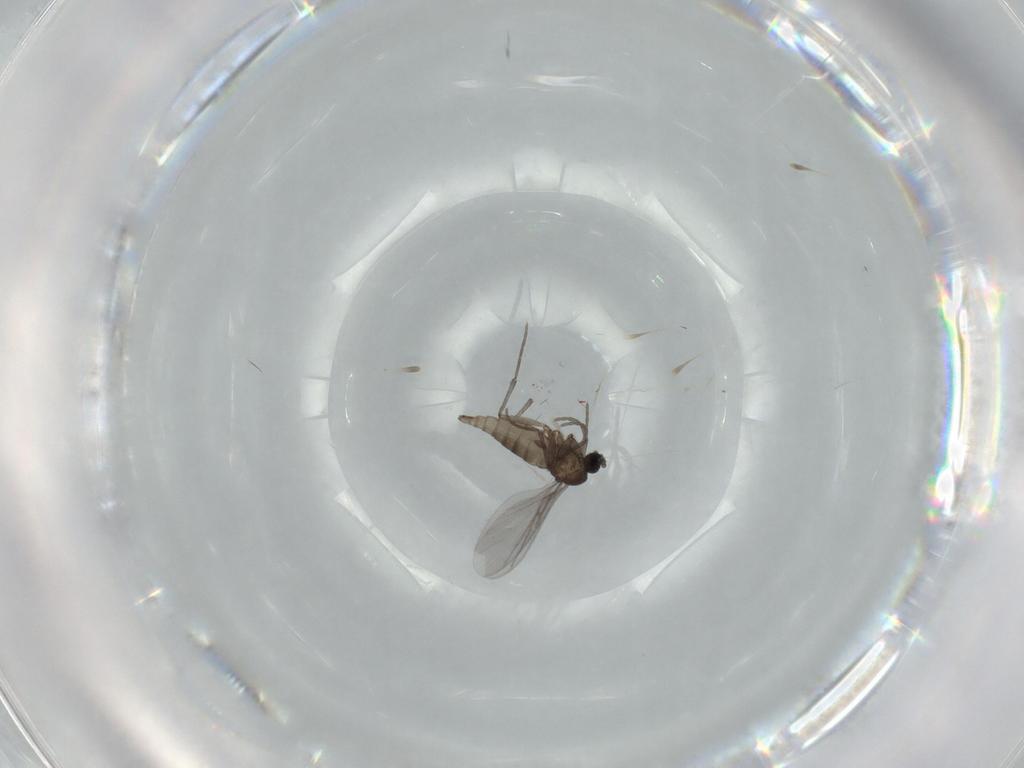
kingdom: Animalia
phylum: Arthropoda
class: Insecta
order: Diptera
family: Sciaridae
